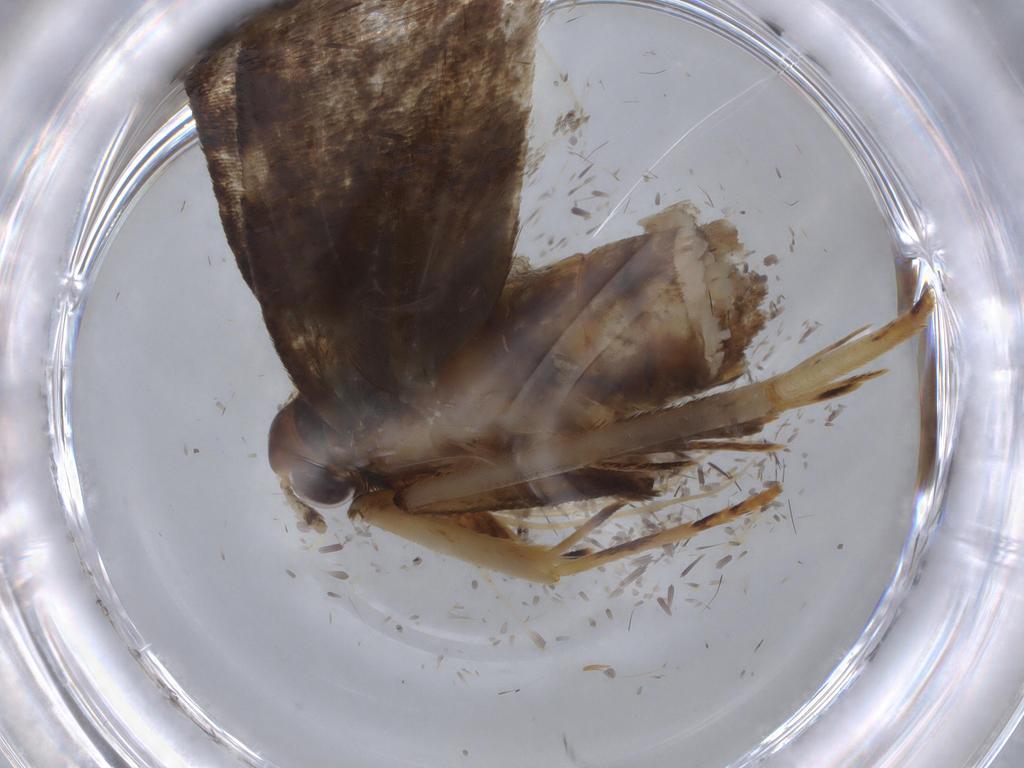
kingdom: Animalia
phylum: Arthropoda
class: Insecta
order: Lepidoptera
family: Lecithoceridae
